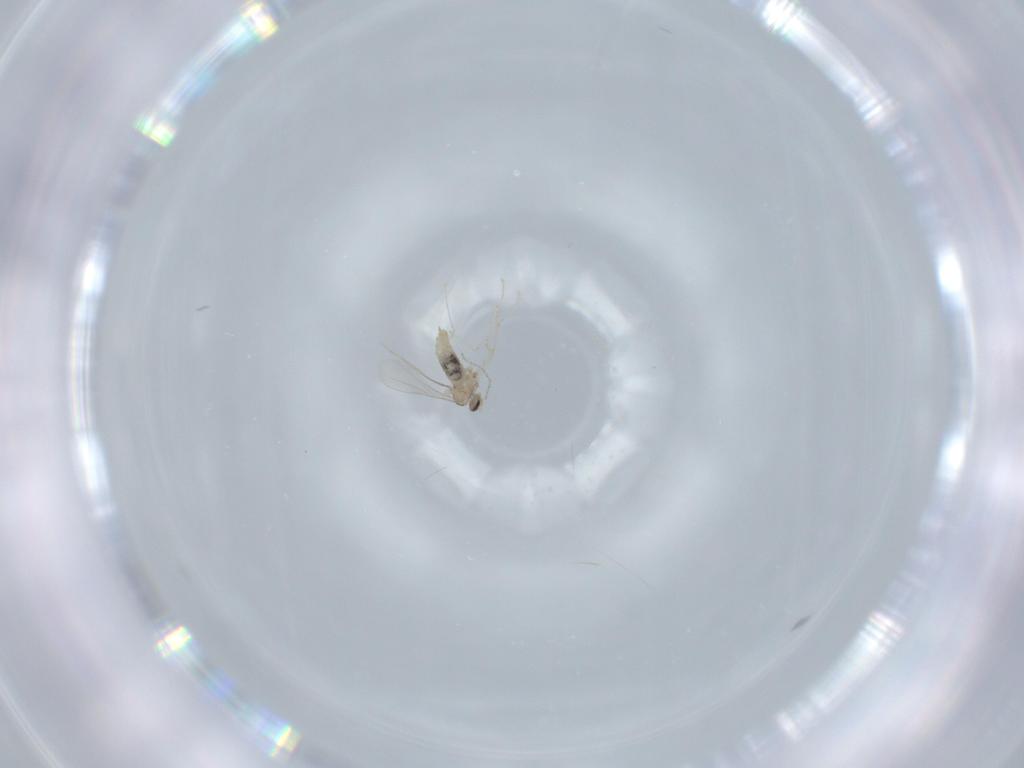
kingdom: Animalia
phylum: Arthropoda
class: Insecta
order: Diptera
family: Cecidomyiidae
